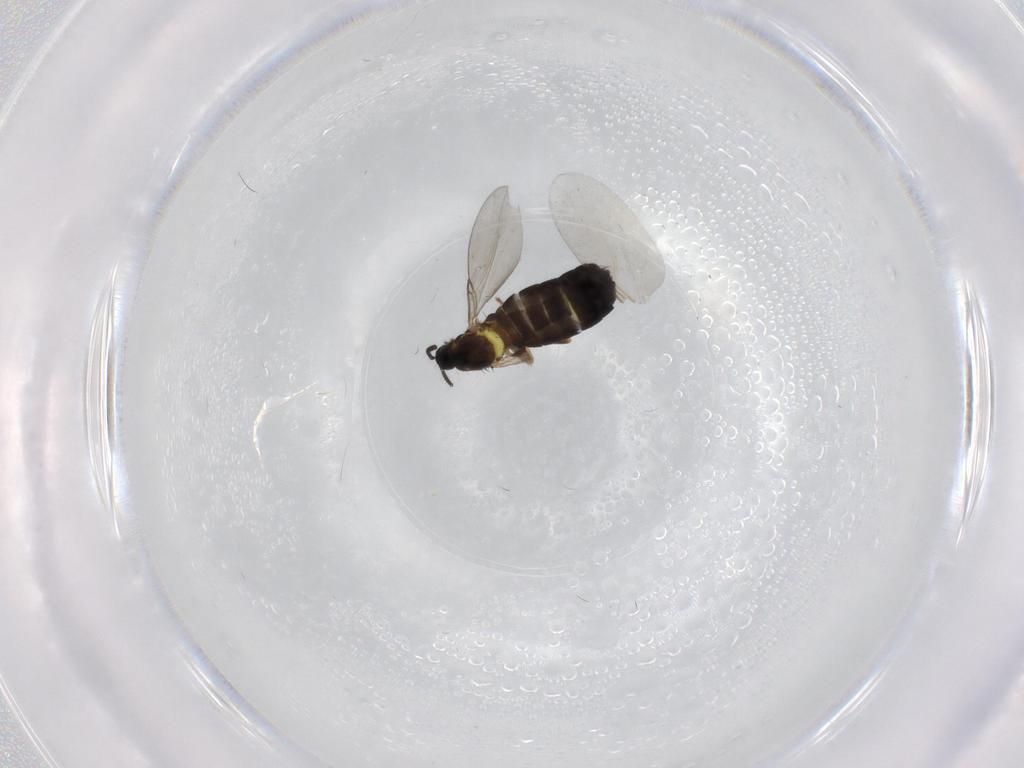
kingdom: Animalia
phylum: Arthropoda
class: Insecta
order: Diptera
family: Scatopsidae
